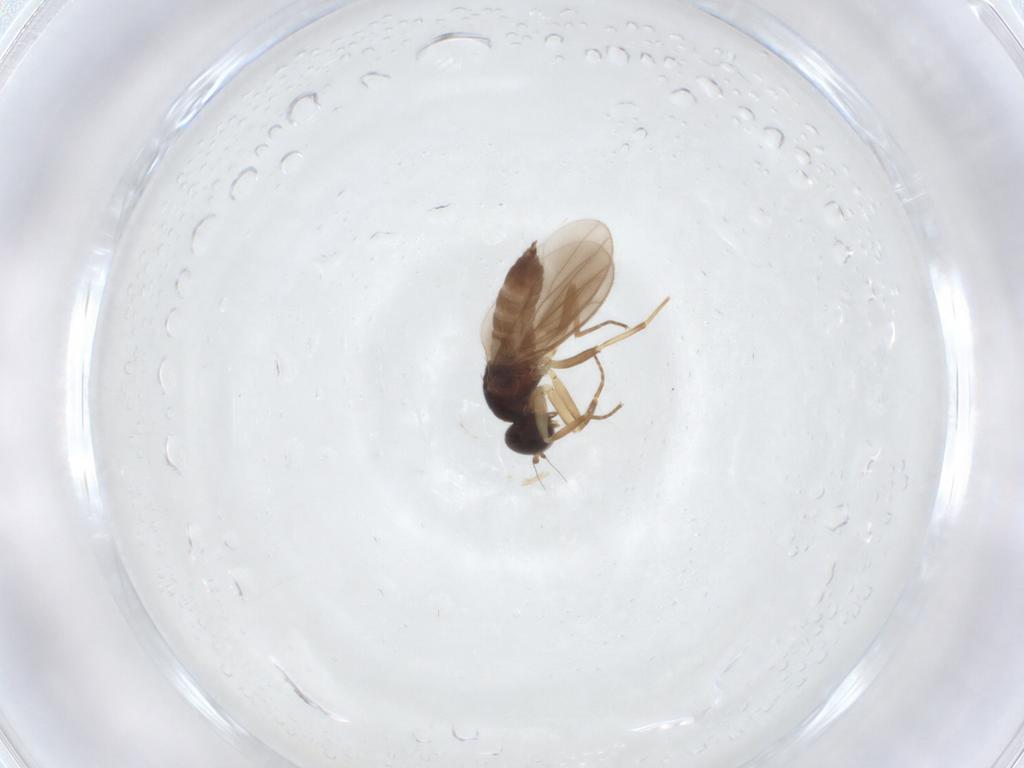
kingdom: Animalia
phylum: Arthropoda
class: Insecta
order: Diptera
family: Hybotidae
